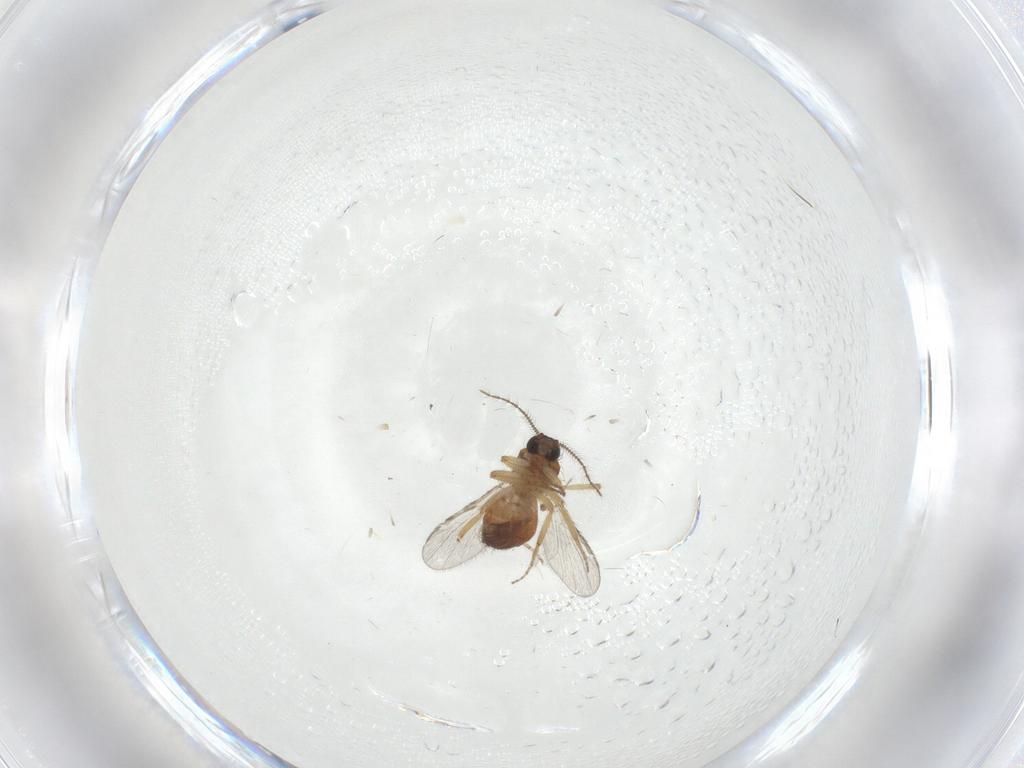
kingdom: Animalia
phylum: Arthropoda
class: Insecta
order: Diptera
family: Ceratopogonidae
